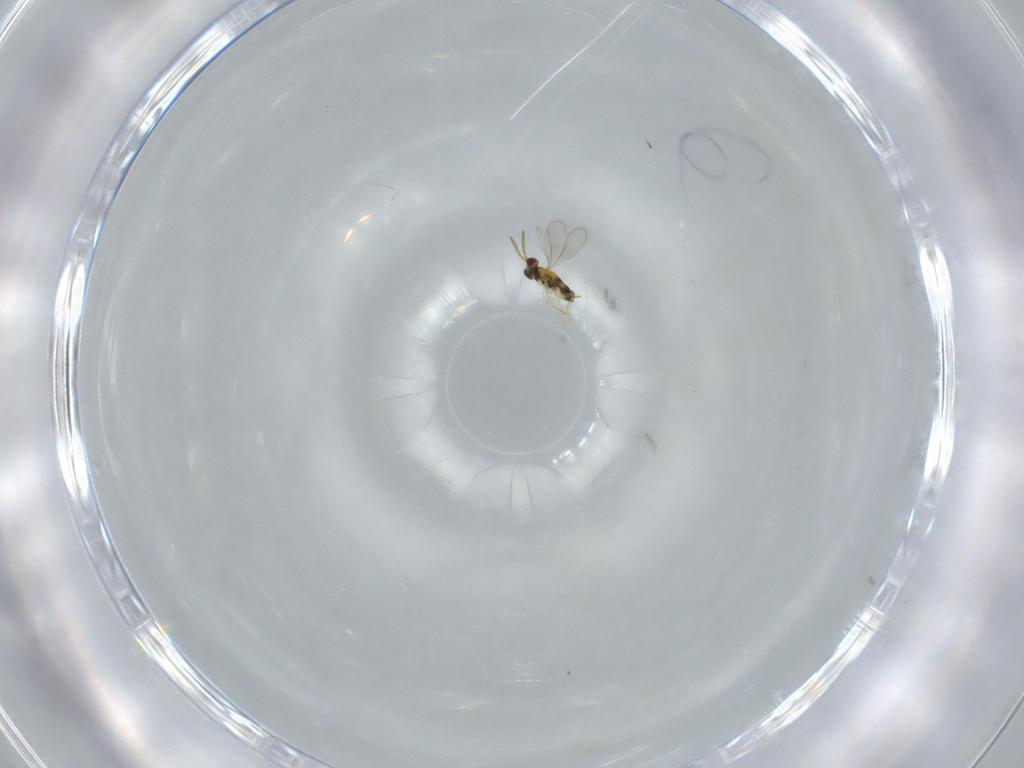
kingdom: Animalia
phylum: Arthropoda
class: Insecta
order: Hymenoptera
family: Aphelinidae
